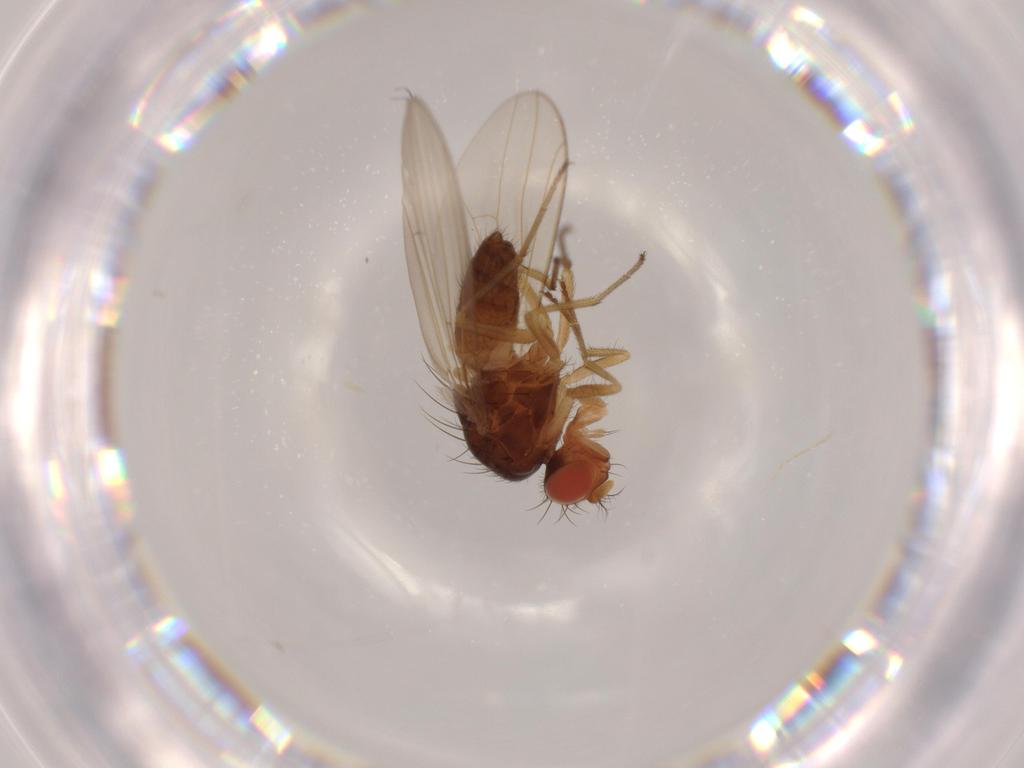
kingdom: Animalia
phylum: Arthropoda
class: Insecta
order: Diptera
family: Drosophilidae
